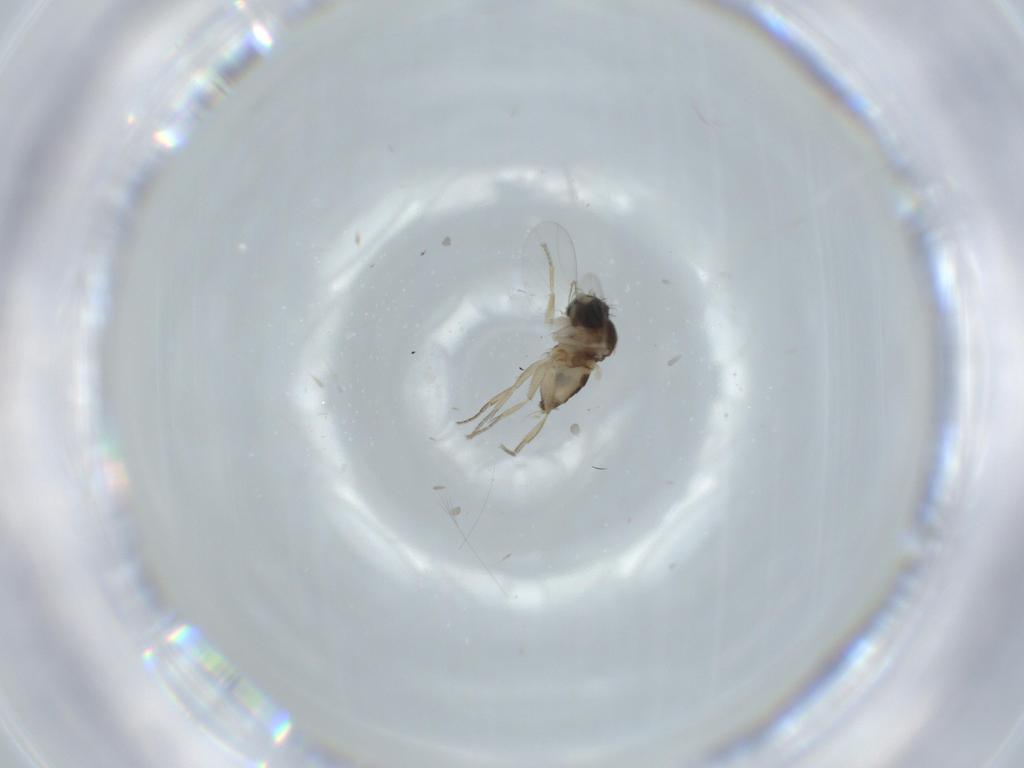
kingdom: Animalia
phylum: Arthropoda
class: Insecta
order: Diptera
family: Phoridae
